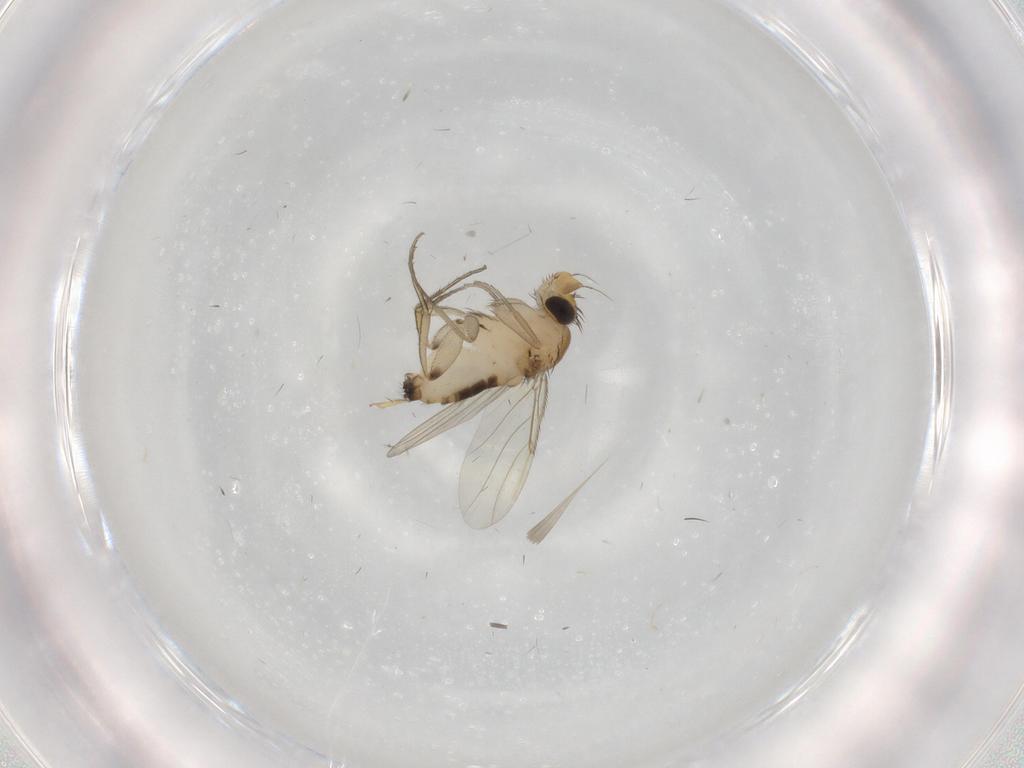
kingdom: Animalia
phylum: Arthropoda
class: Insecta
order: Diptera
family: Phoridae
